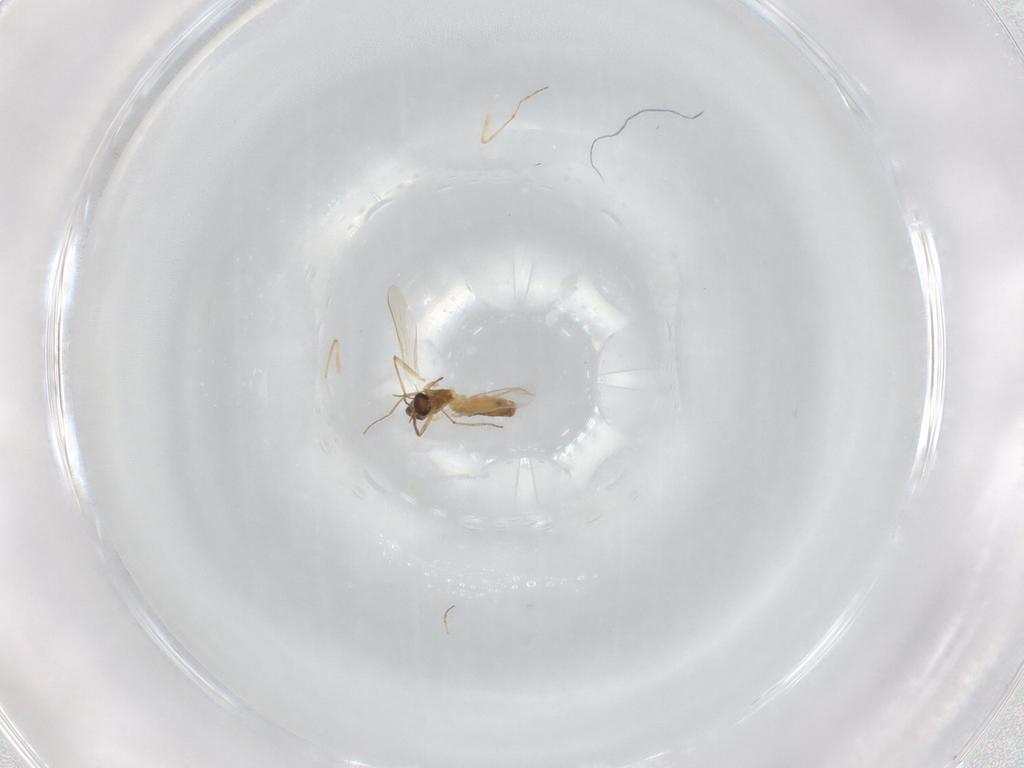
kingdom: Animalia
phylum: Arthropoda
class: Insecta
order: Diptera
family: Chironomidae
